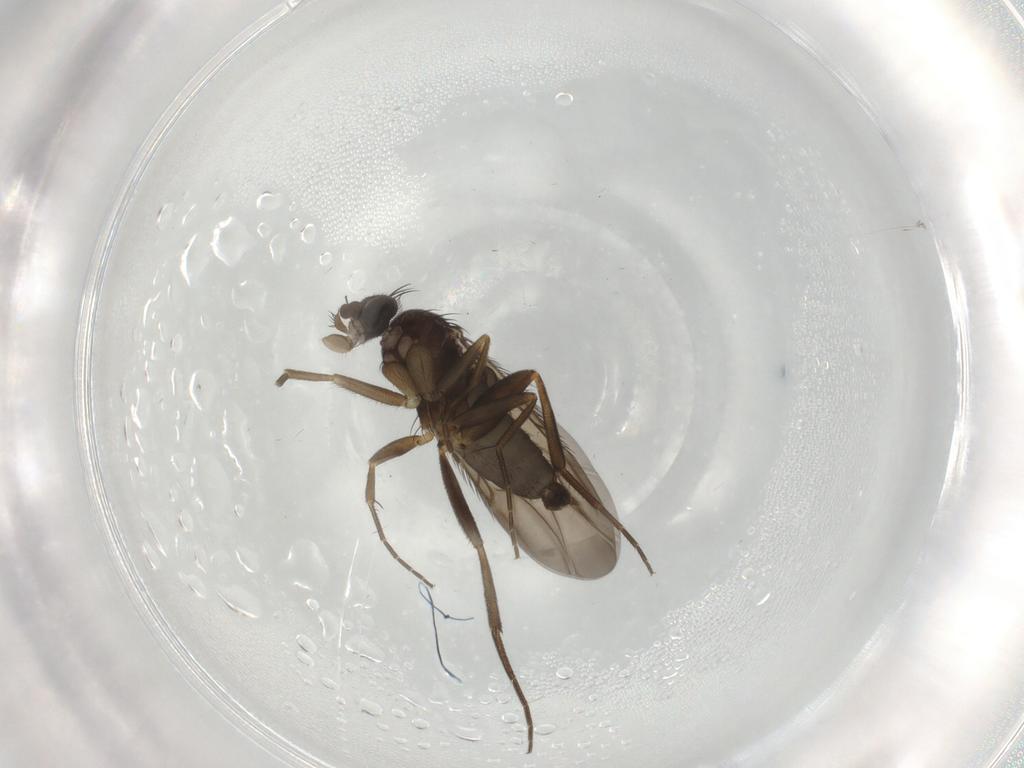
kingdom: Animalia
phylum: Arthropoda
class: Insecta
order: Diptera
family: Phoridae
